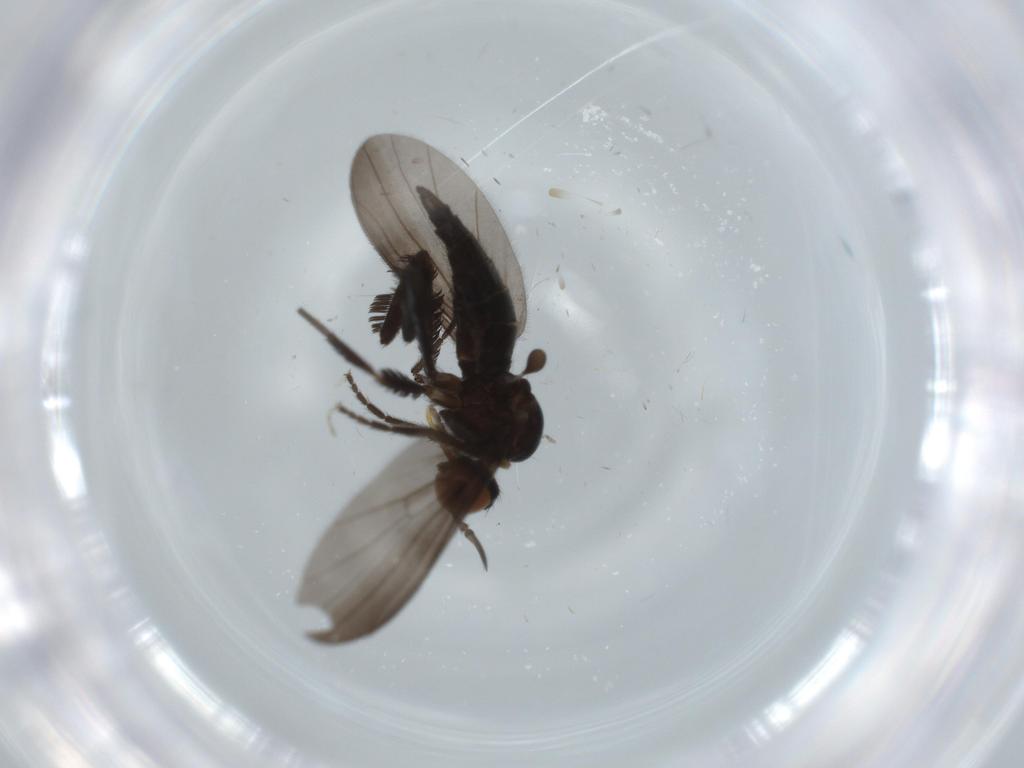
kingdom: Animalia
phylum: Arthropoda
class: Insecta
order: Diptera
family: Empididae
